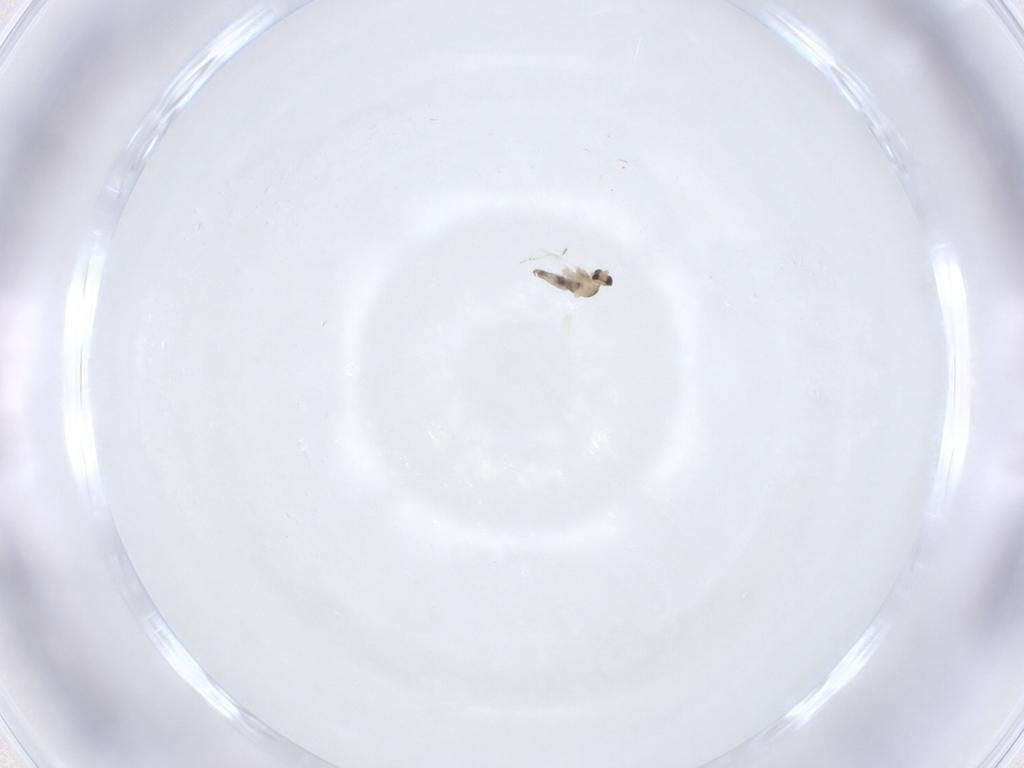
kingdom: Animalia
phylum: Arthropoda
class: Insecta
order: Diptera
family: Cecidomyiidae
